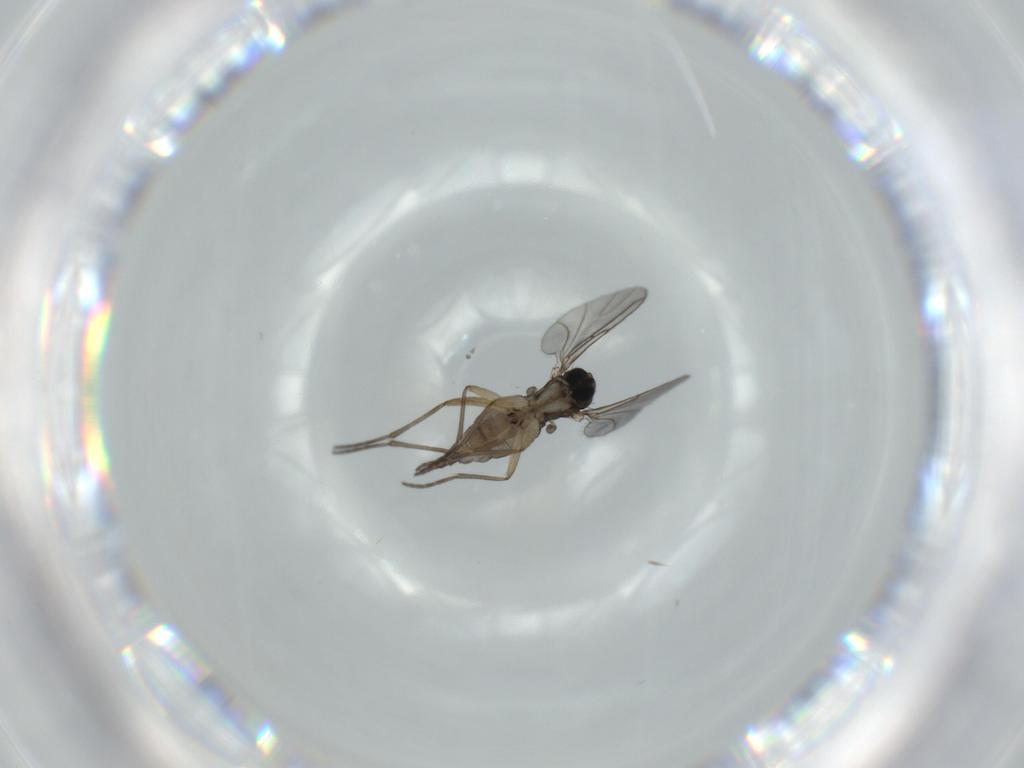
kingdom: Animalia
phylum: Arthropoda
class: Insecta
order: Diptera
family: Sciaridae
